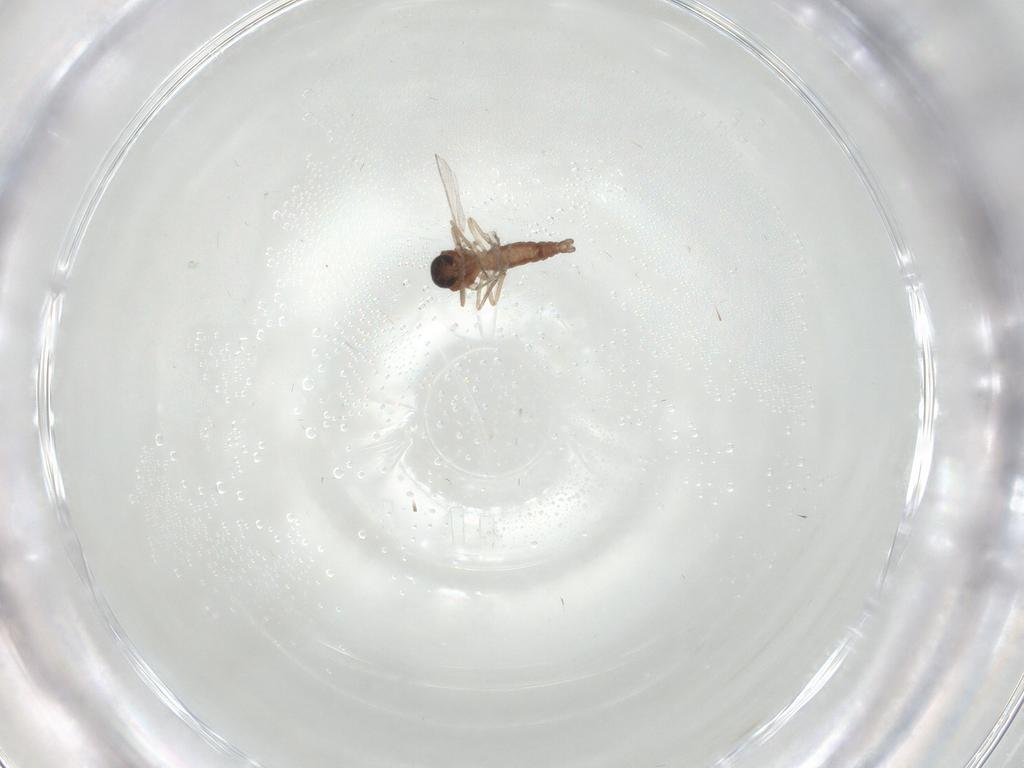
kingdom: Animalia
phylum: Arthropoda
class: Insecta
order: Diptera
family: Ceratopogonidae
